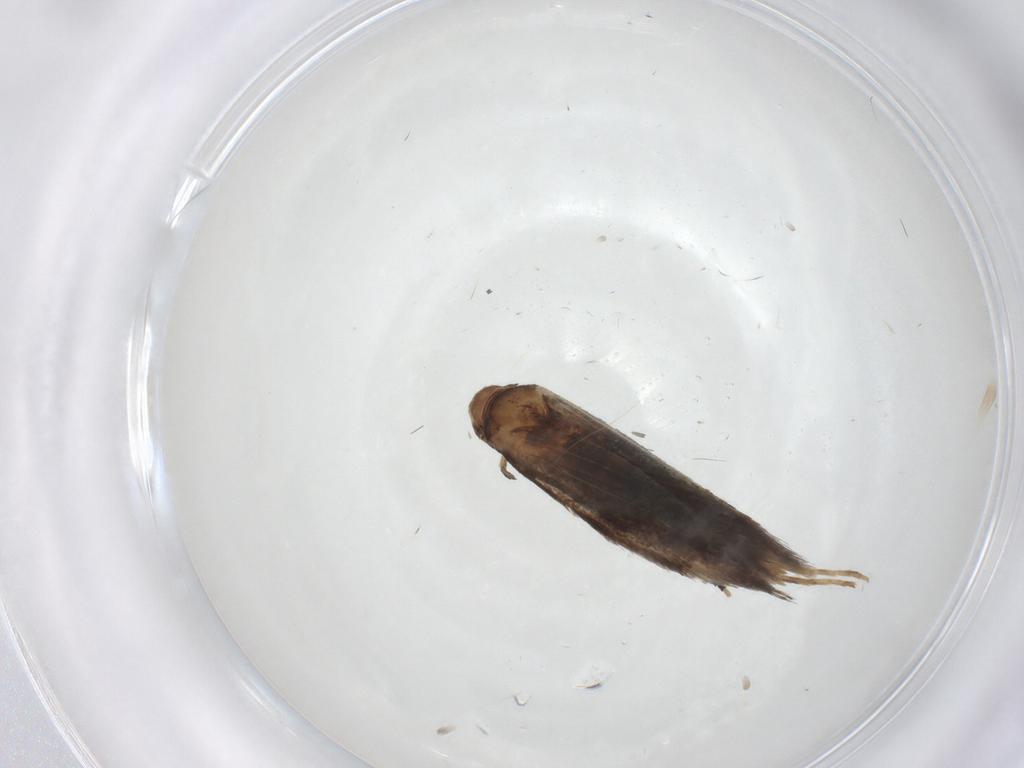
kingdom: Animalia
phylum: Arthropoda
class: Insecta
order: Lepidoptera
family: Elachistidae
